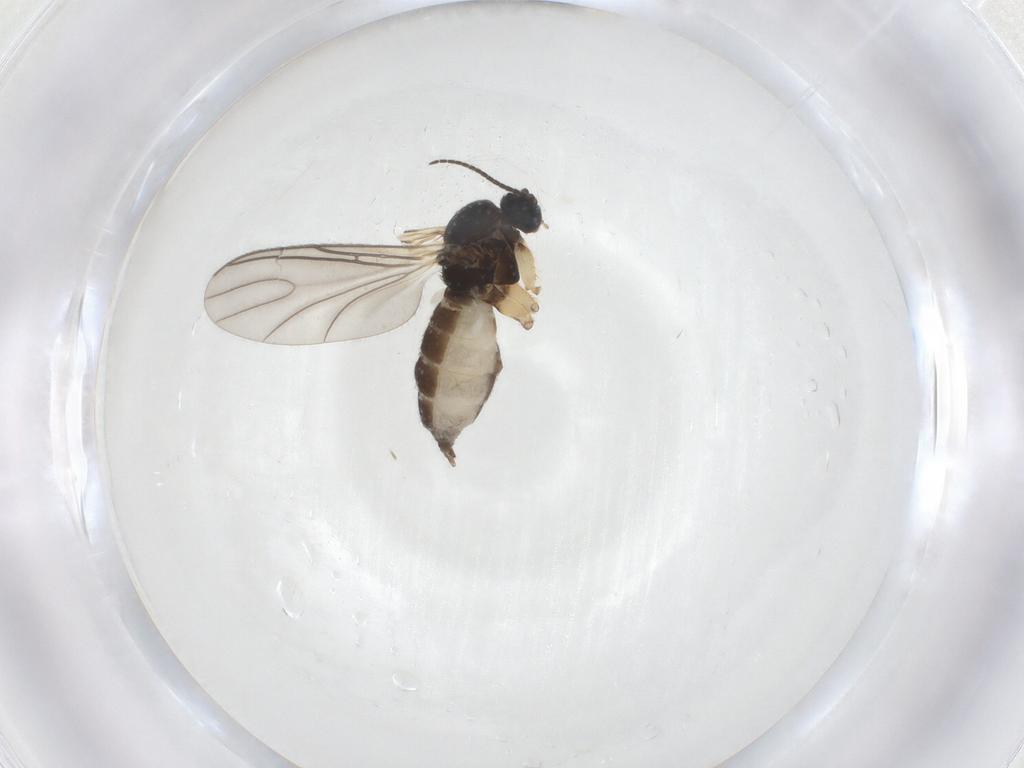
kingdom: Animalia
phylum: Arthropoda
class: Insecta
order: Diptera
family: Sciaridae
